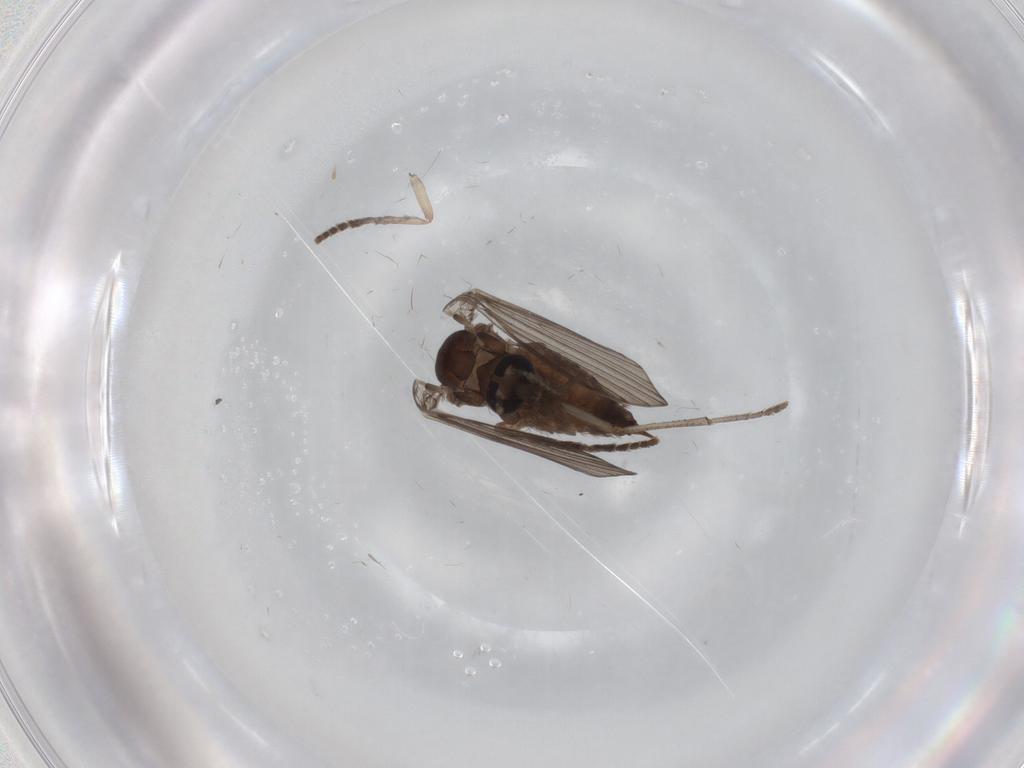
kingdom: Animalia
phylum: Arthropoda
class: Insecta
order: Diptera
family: Psychodidae
